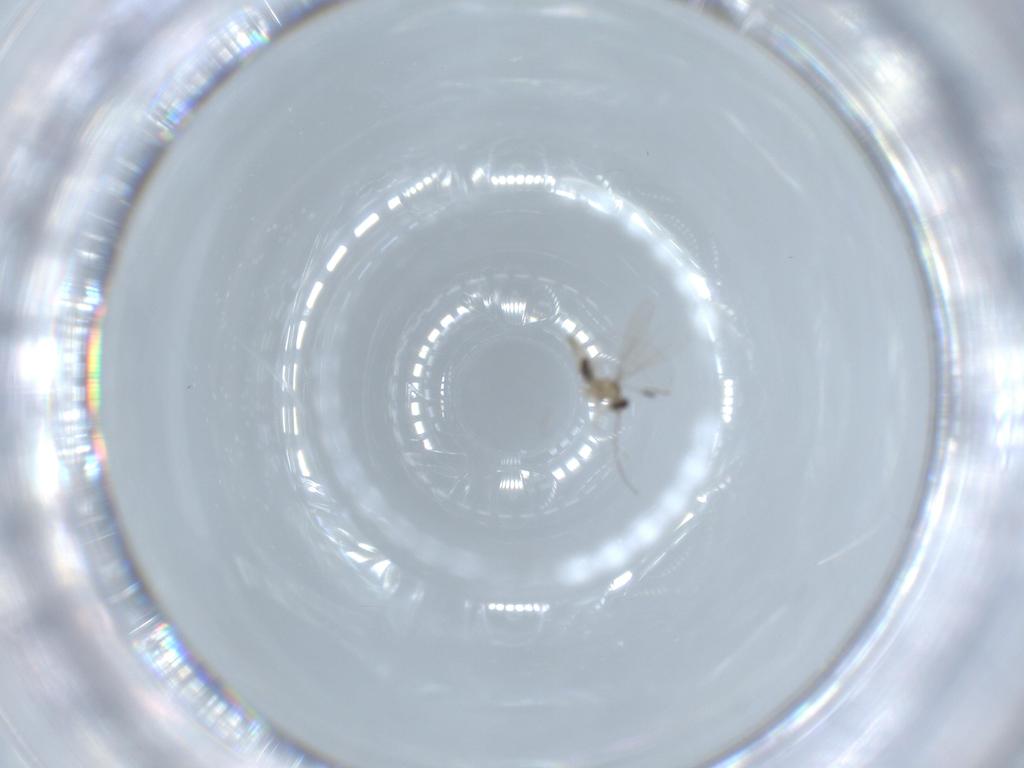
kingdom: Animalia
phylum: Arthropoda
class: Insecta
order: Diptera
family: Cecidomyiidae
